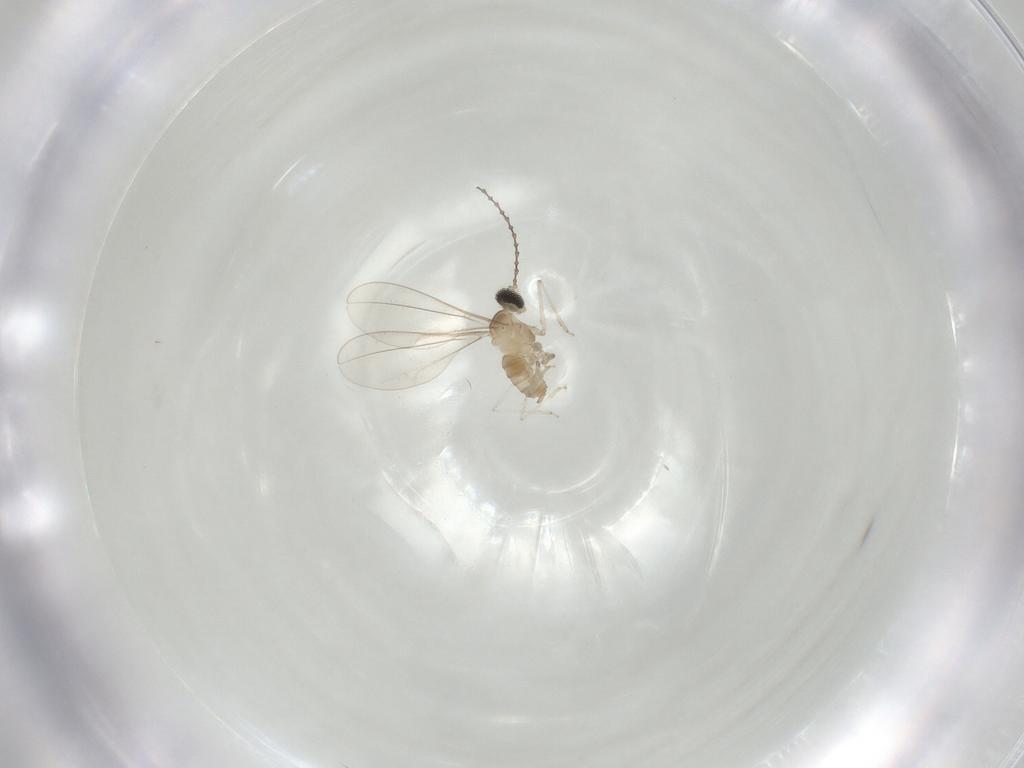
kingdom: Animalia
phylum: Arthropoda
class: Insecta
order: Diptera
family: Cecidomyiidae
